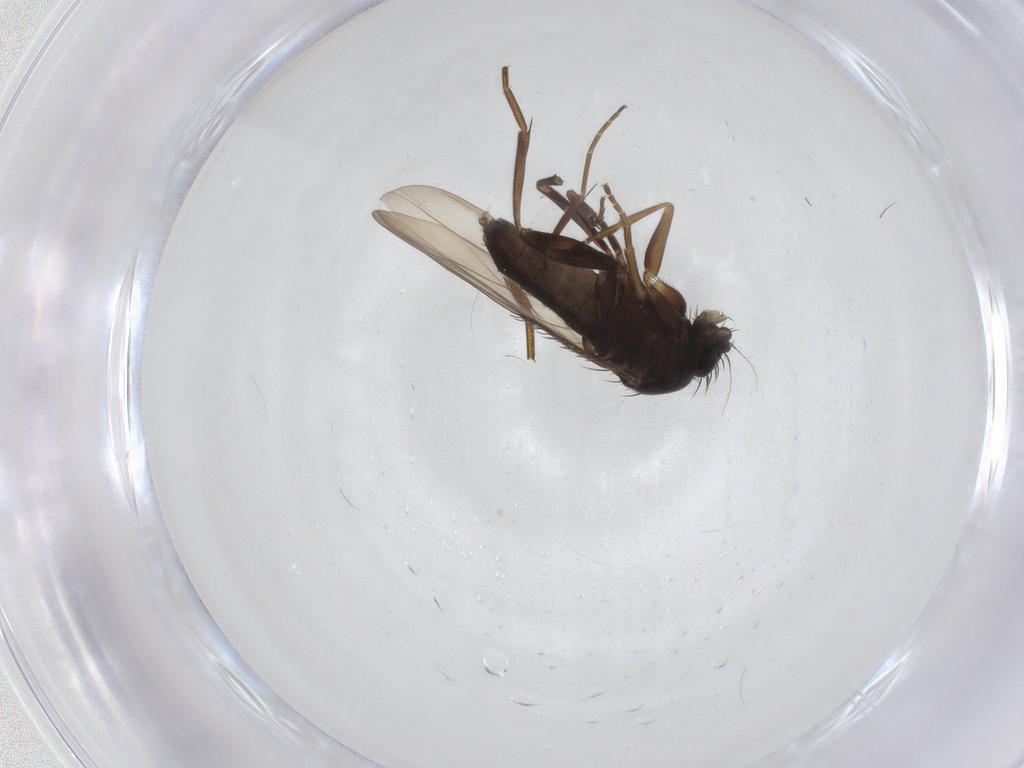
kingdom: Animalia
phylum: Arthropoda
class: Insecta
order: Diptera
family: Phoridae
